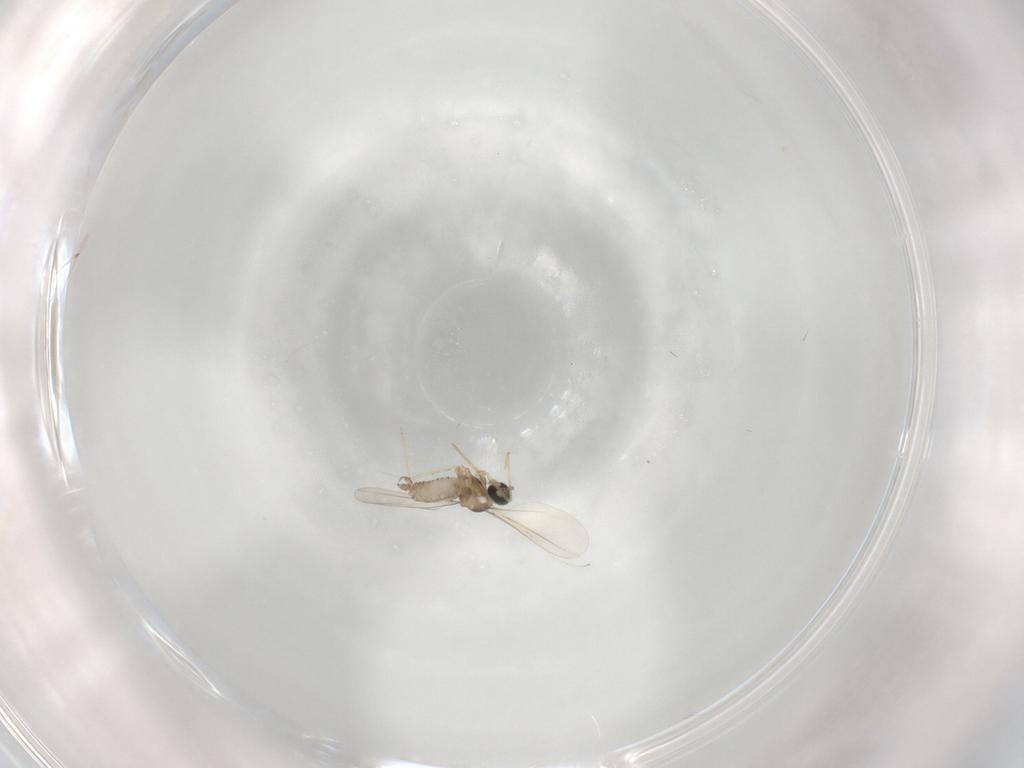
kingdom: Animalia
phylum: Arthropoda
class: Insecta
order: Diptera
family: Cecidomyiidae
